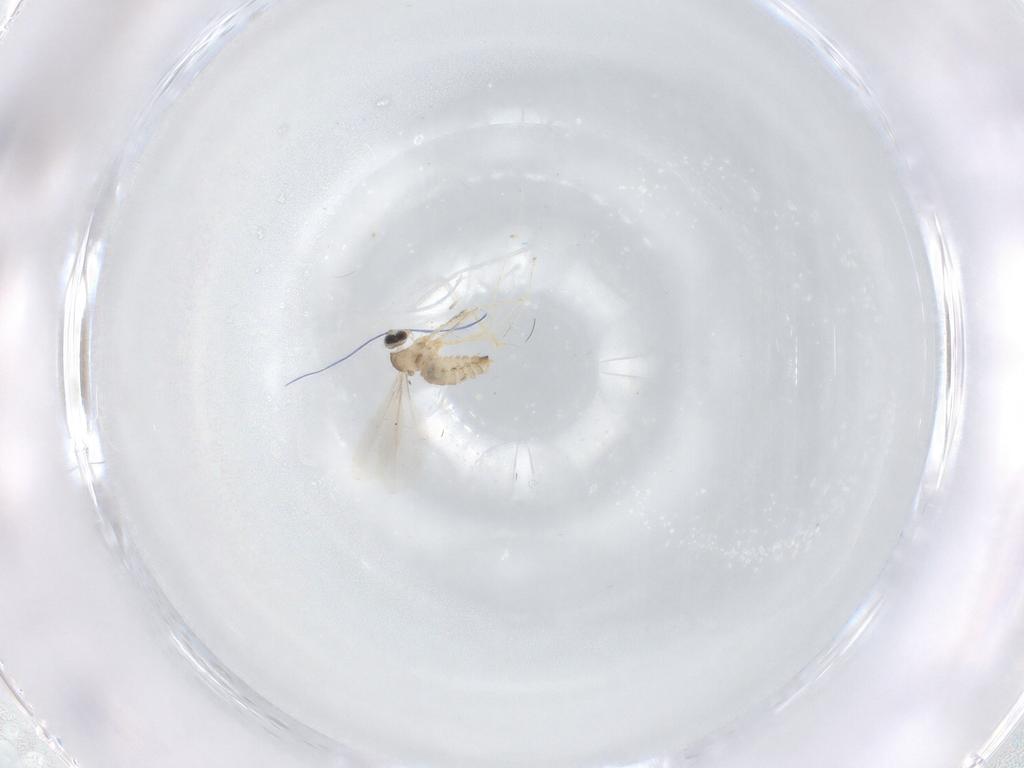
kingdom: Animalia
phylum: Arthropoda
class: Insecta
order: Diptera
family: Cecidomyiidae
